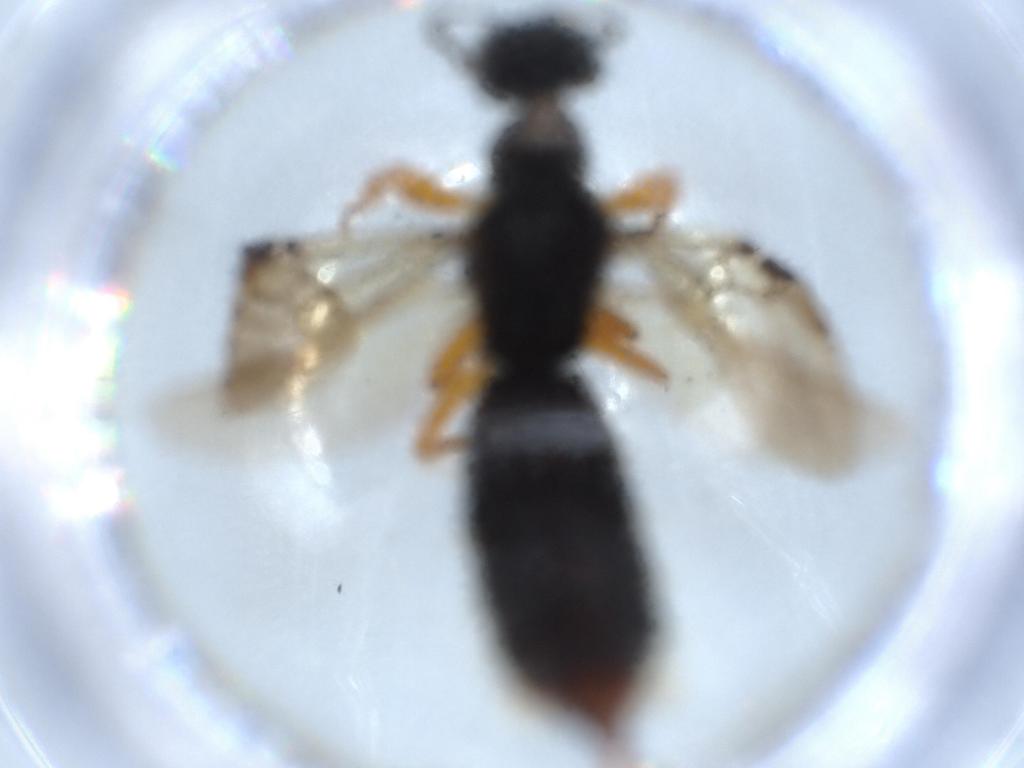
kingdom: Animalia
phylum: Arthropoda
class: Insecta
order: Hymenoptera
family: Scolebythidae
